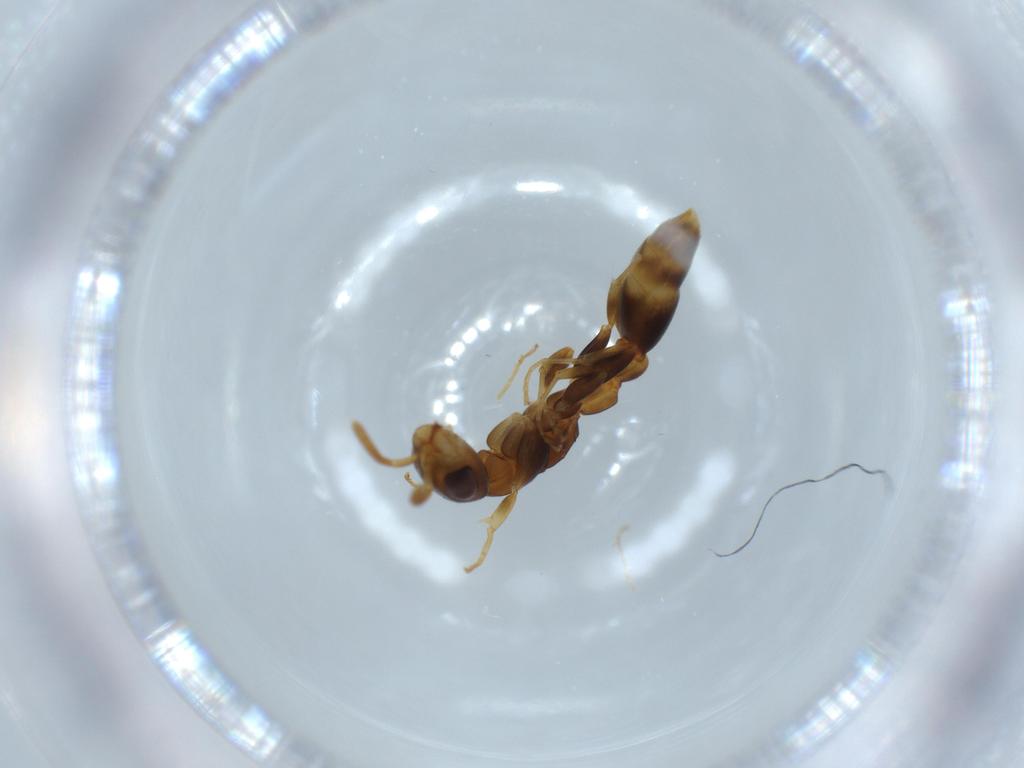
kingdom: Animalia
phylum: Arthropoda
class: Insecta
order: Hymenoptera
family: Formicidae
